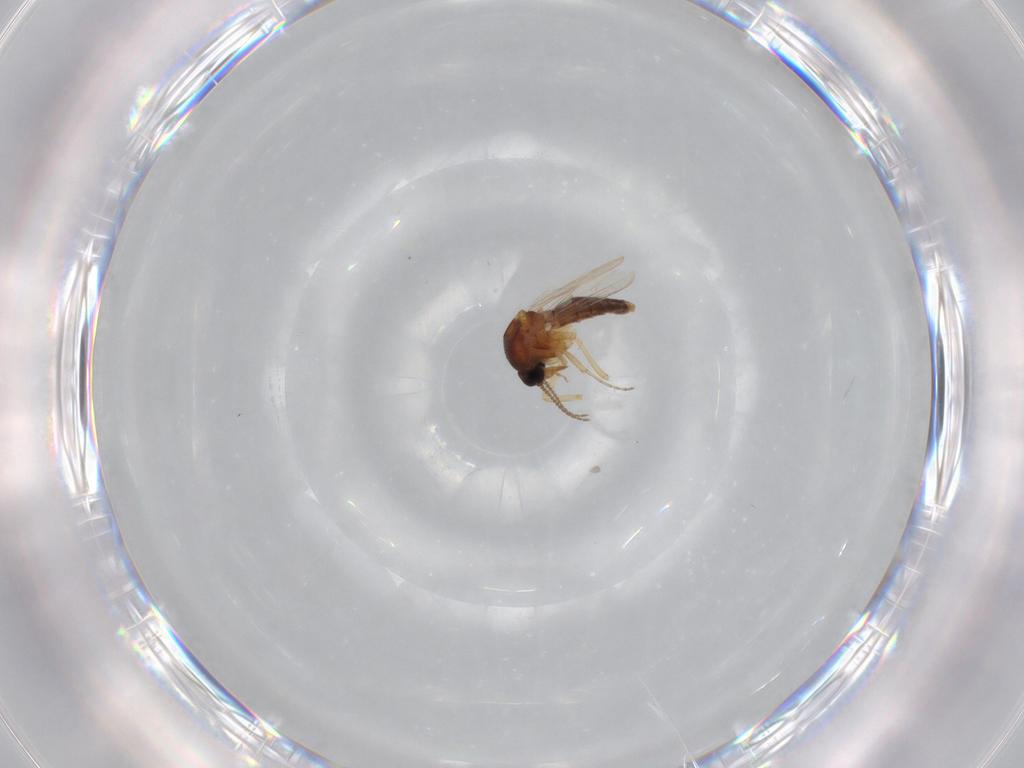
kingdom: Animalia
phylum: Arthropoda
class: Insecta
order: Diptera
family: Ceratopogonidae
